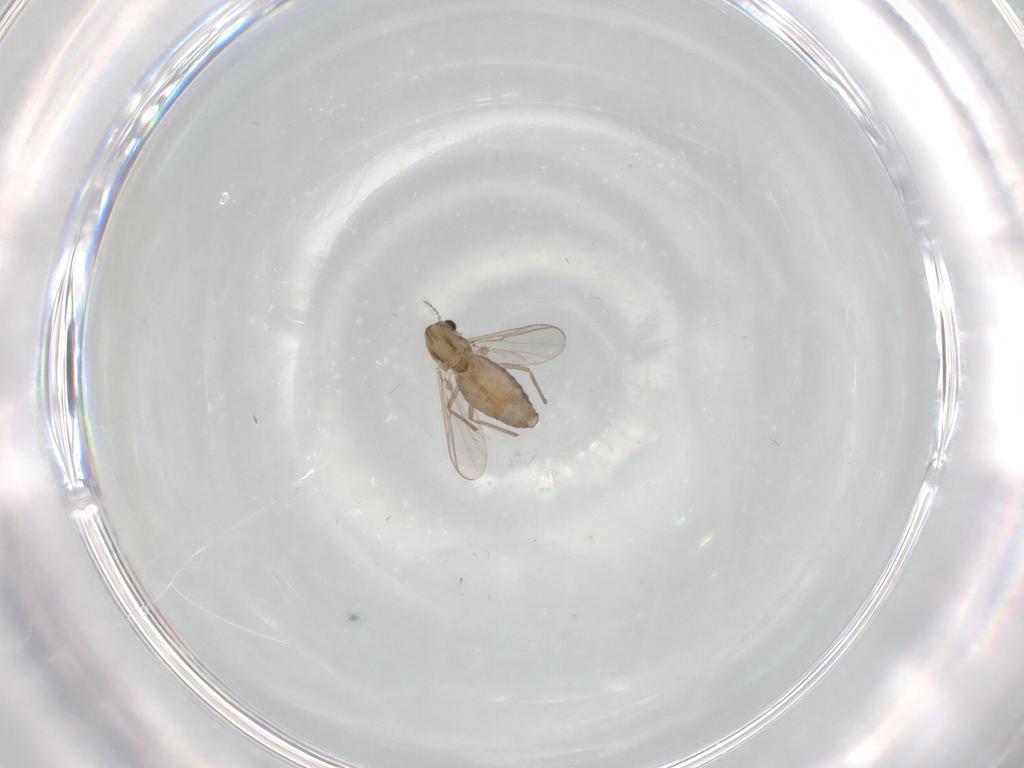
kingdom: Animalia
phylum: Arthropoda
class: Insecta
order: Diptera
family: Chironomidae
